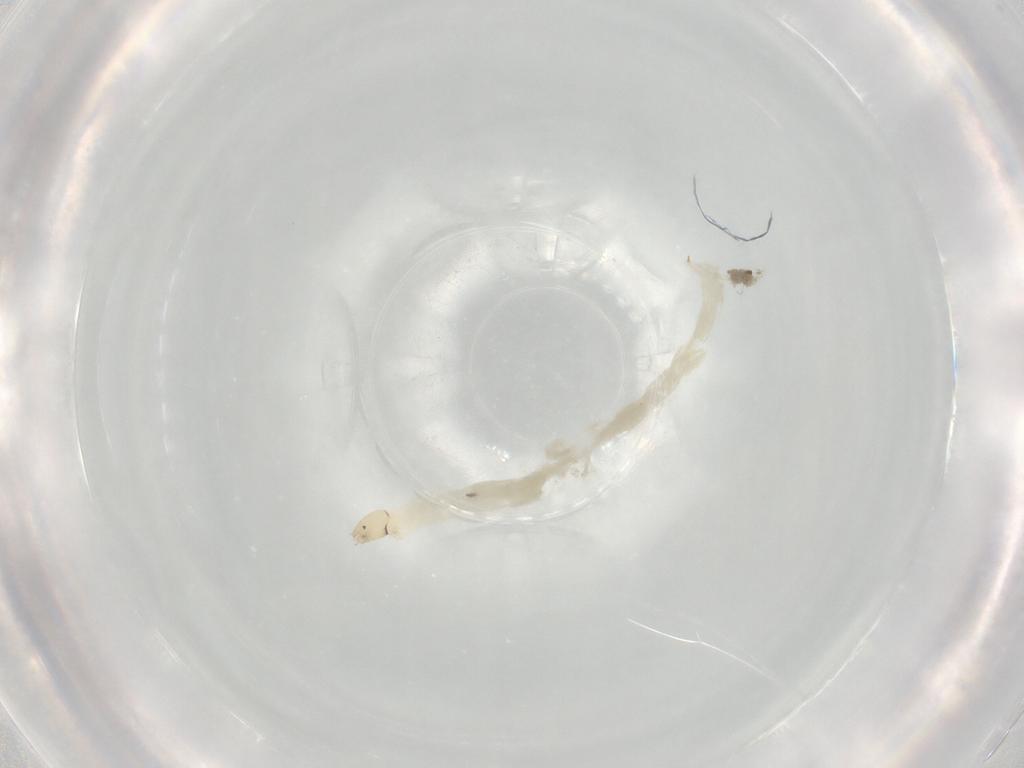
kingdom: Animalia
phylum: Arthropoda
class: Insecta
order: Diptera
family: Chironomidae
